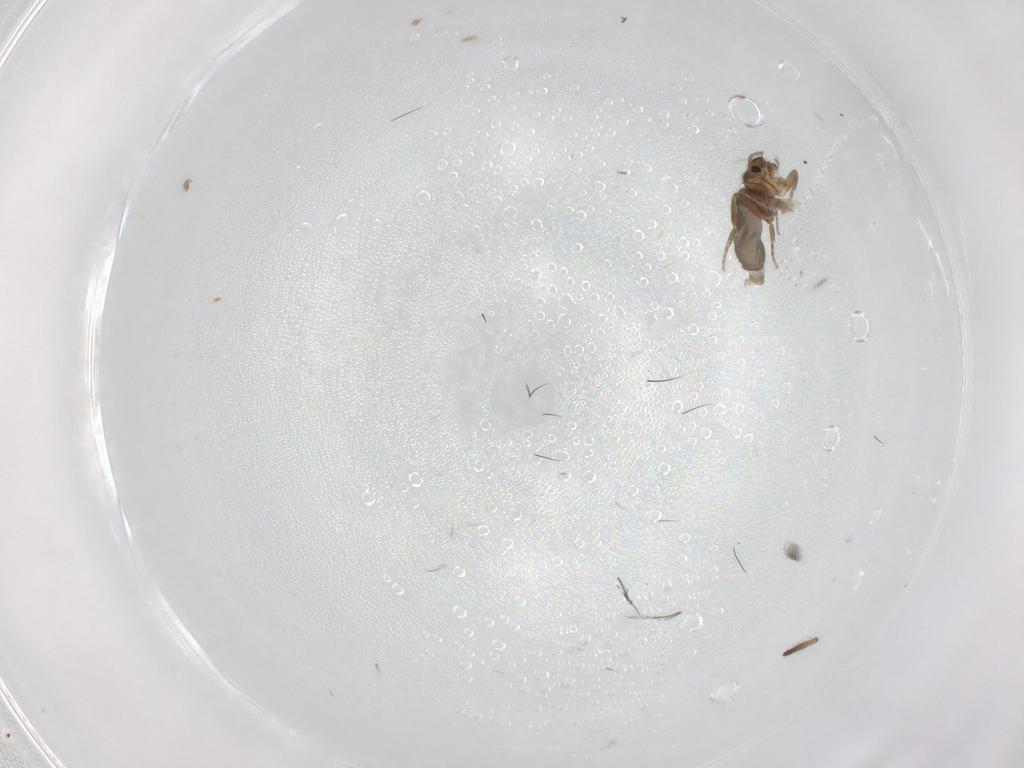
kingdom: Animalia
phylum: Arthropoda
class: Insecta
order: Diptera
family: Phoridae
